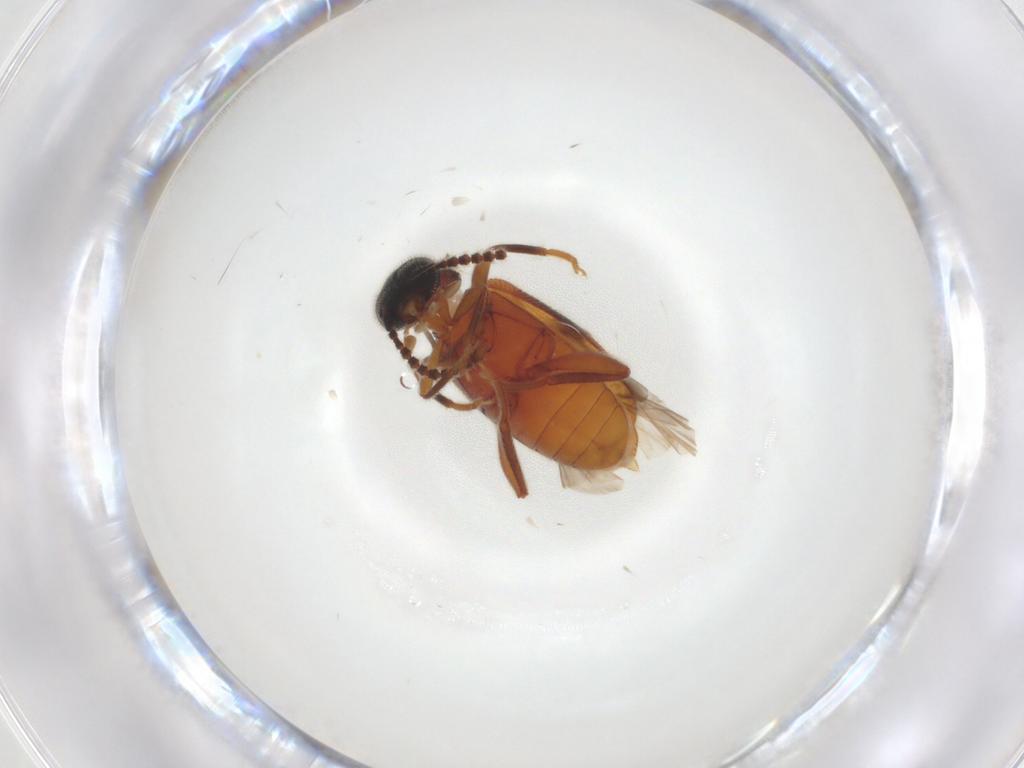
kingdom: Animalia
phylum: Arthropoda
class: Insecta
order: Coleoptera
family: Aderidae
